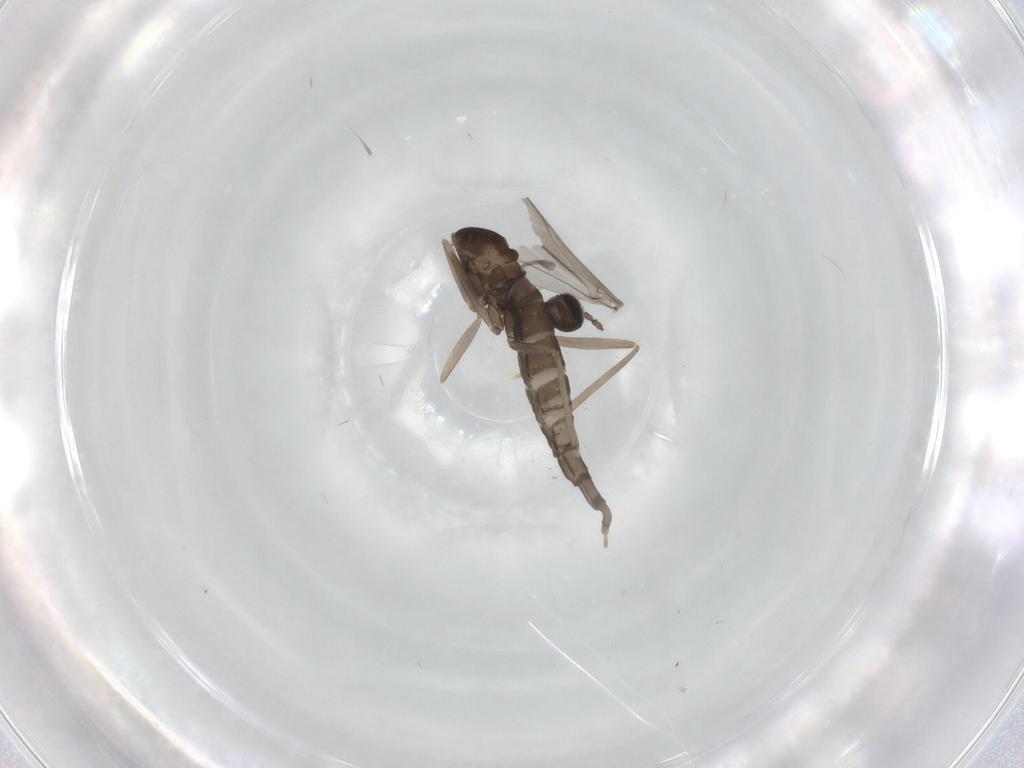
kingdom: Animalia
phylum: Arthropoda
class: Insecta
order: Diptera
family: Cecidomyiidae
